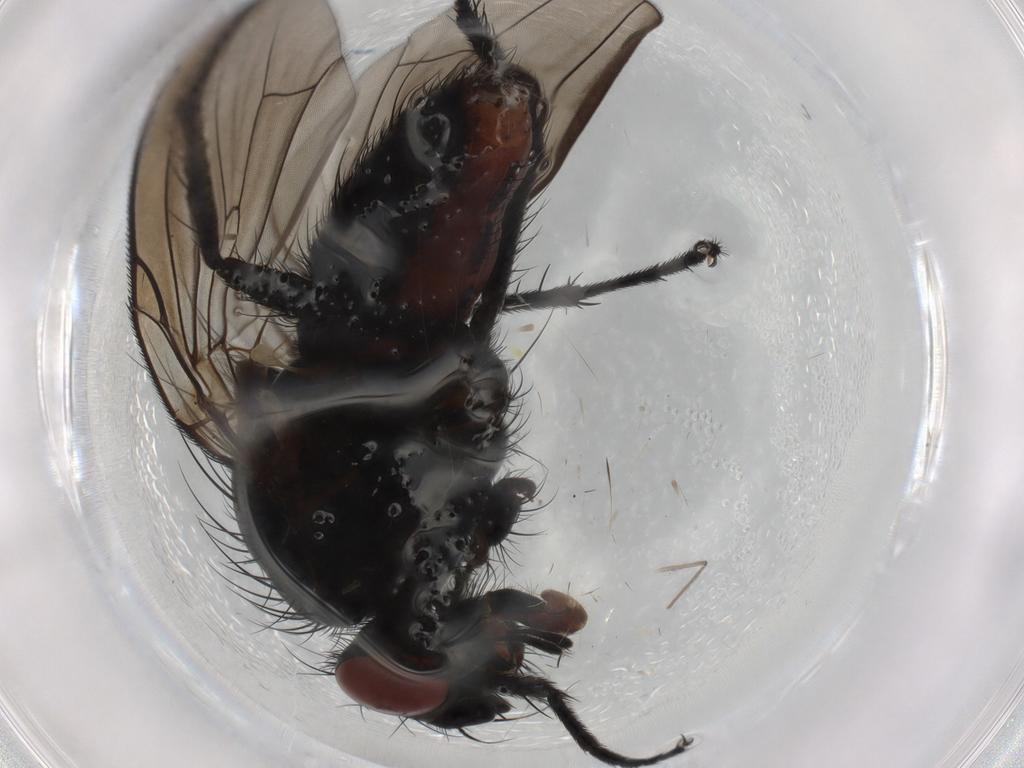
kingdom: Animalia
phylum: Arthropoda
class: Insecta
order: Diptera
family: Anthomyiidae
